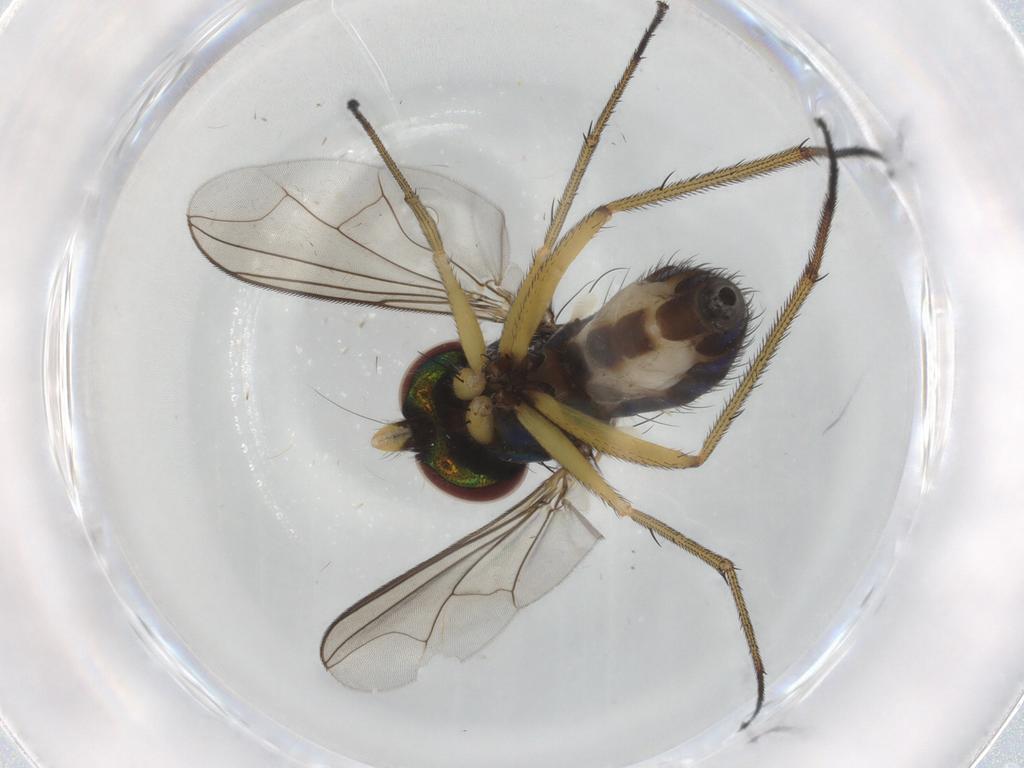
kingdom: Animalia
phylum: Arthropoda
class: Insecta
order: Diptera
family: Dolichopodidae
